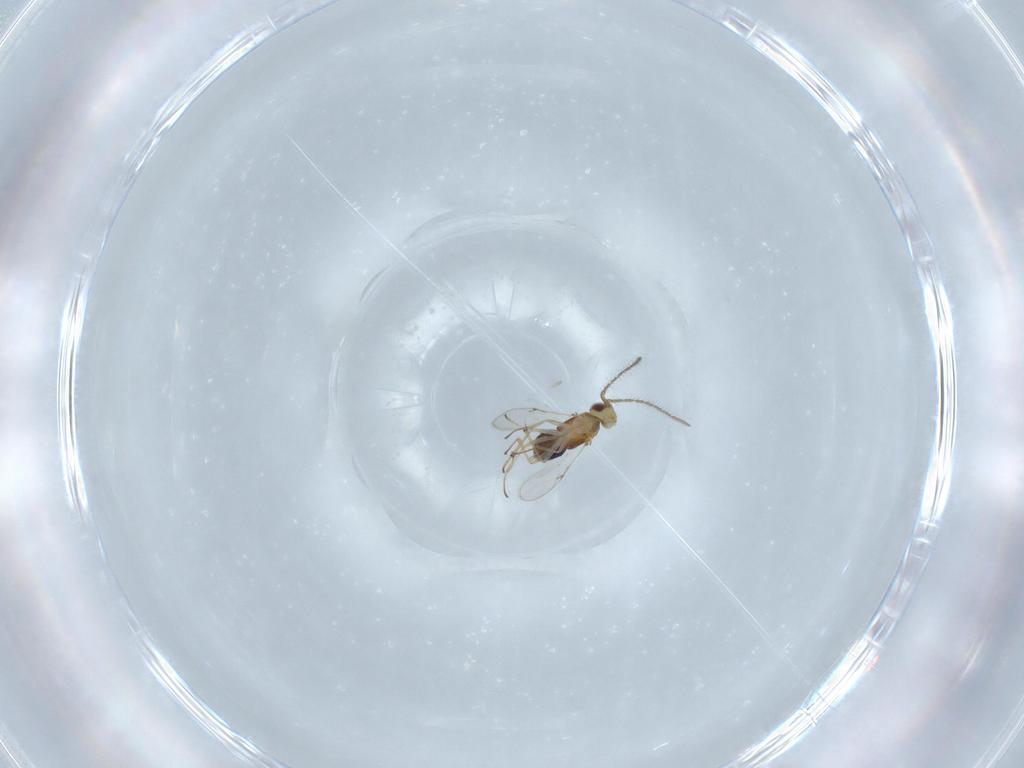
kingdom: Animalia
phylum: Arthropoda
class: Insecta
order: Hymenoptera
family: Encyrtidae
